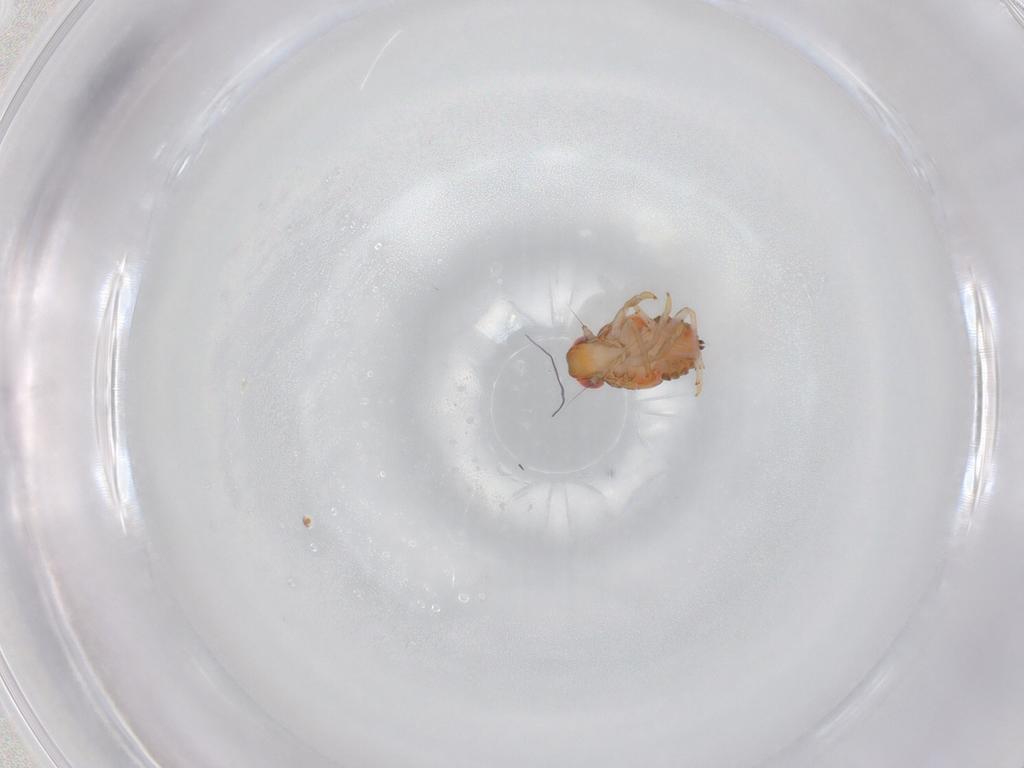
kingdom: Animalia
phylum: Arthropoda
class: Insecta
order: Hemiptera
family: Issidae
